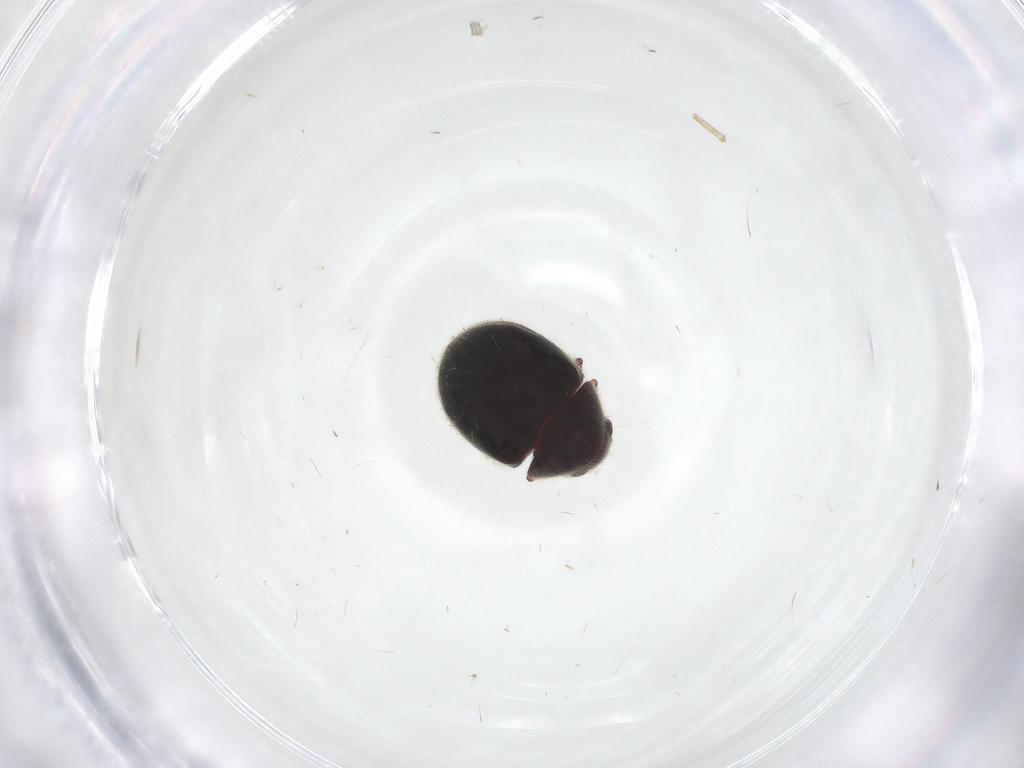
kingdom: Animalia
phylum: Arthropoda
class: Insecta
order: Coleoptera
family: Ptinidae
